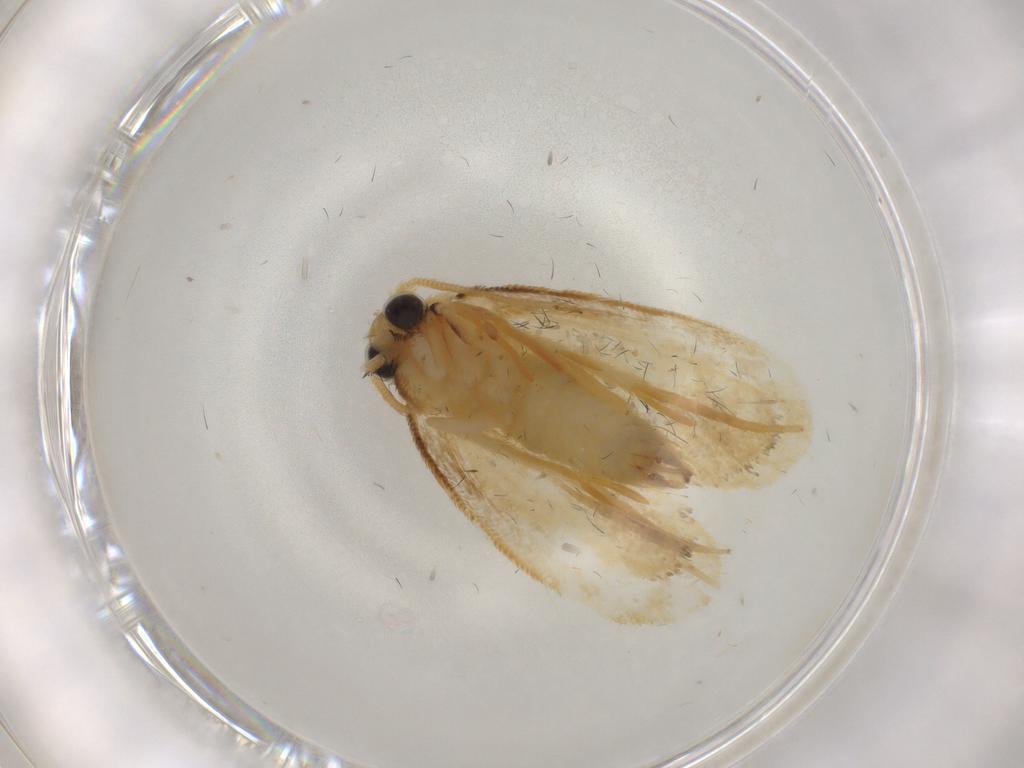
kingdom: Animalia
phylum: Arthropoda
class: Insecta
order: Lepidoptera
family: Psychidae
